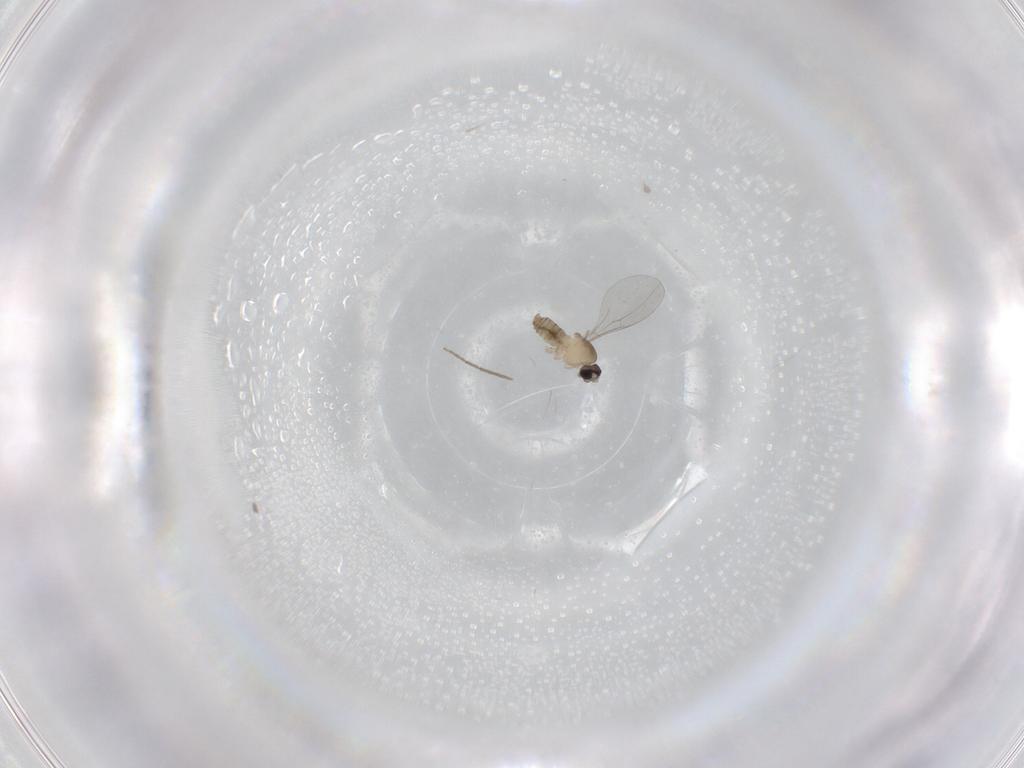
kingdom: Animalia
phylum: Arthropoda
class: Insecta
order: Diptera
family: Cecidomyiidae
